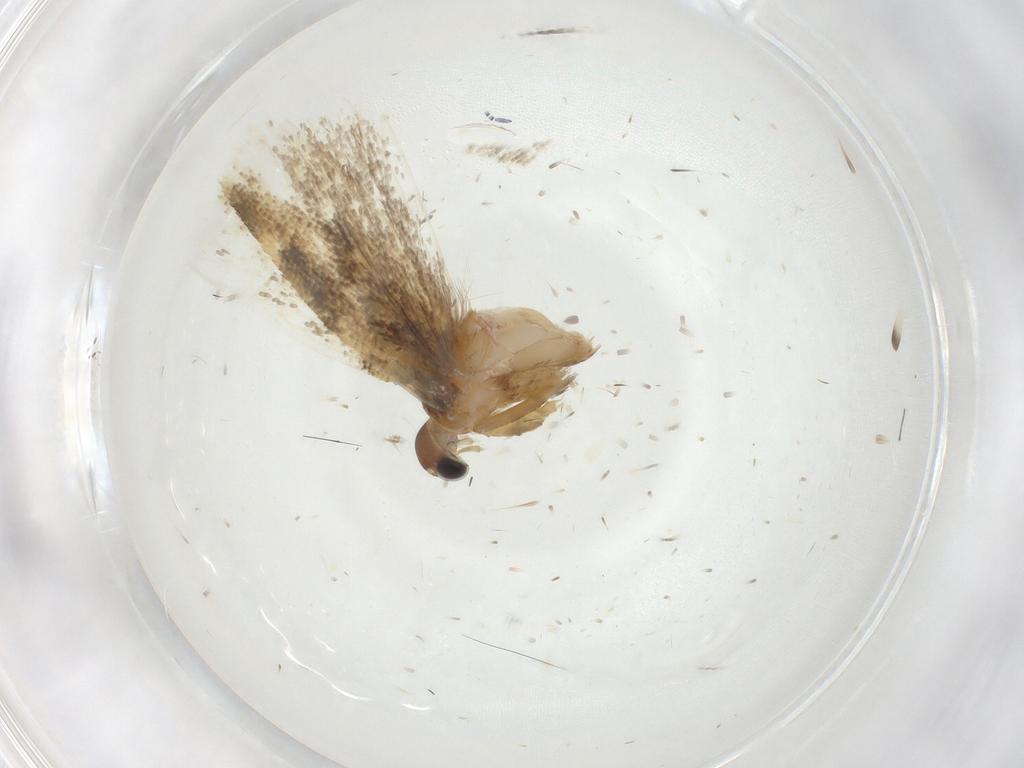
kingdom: Animalia
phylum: Arthropoda
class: Insecta
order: Lepidoptera
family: Gelechiidae
